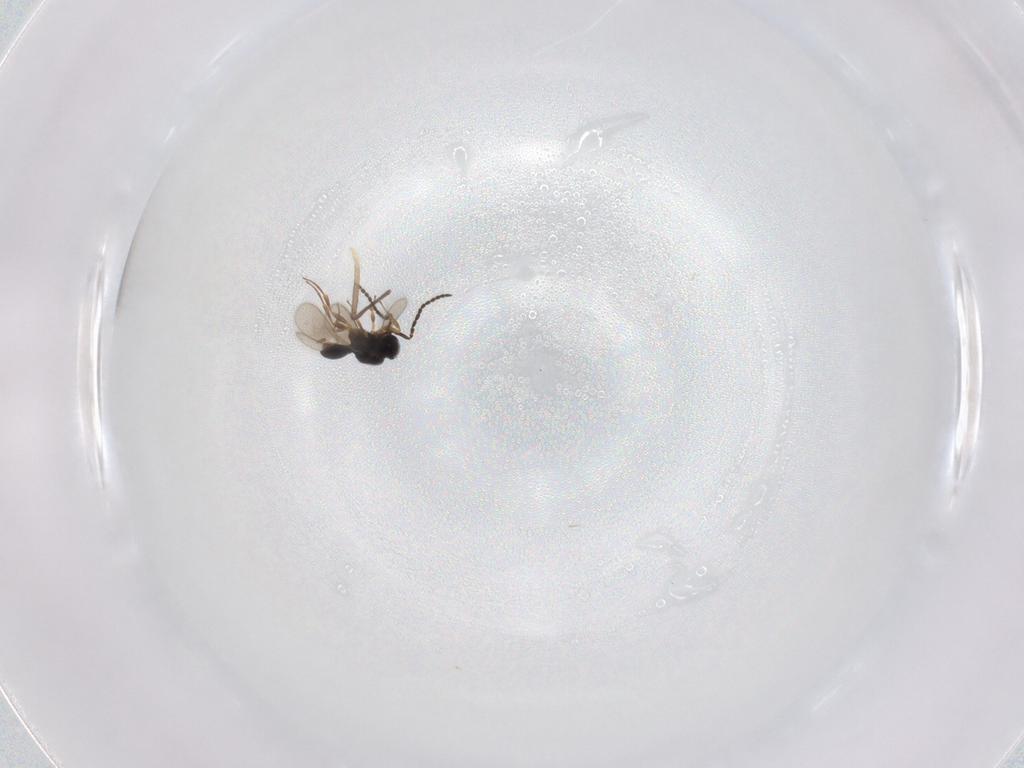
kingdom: Animalia
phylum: Arthropoda
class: Insecta
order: Hymenoptera
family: Scelionidae
